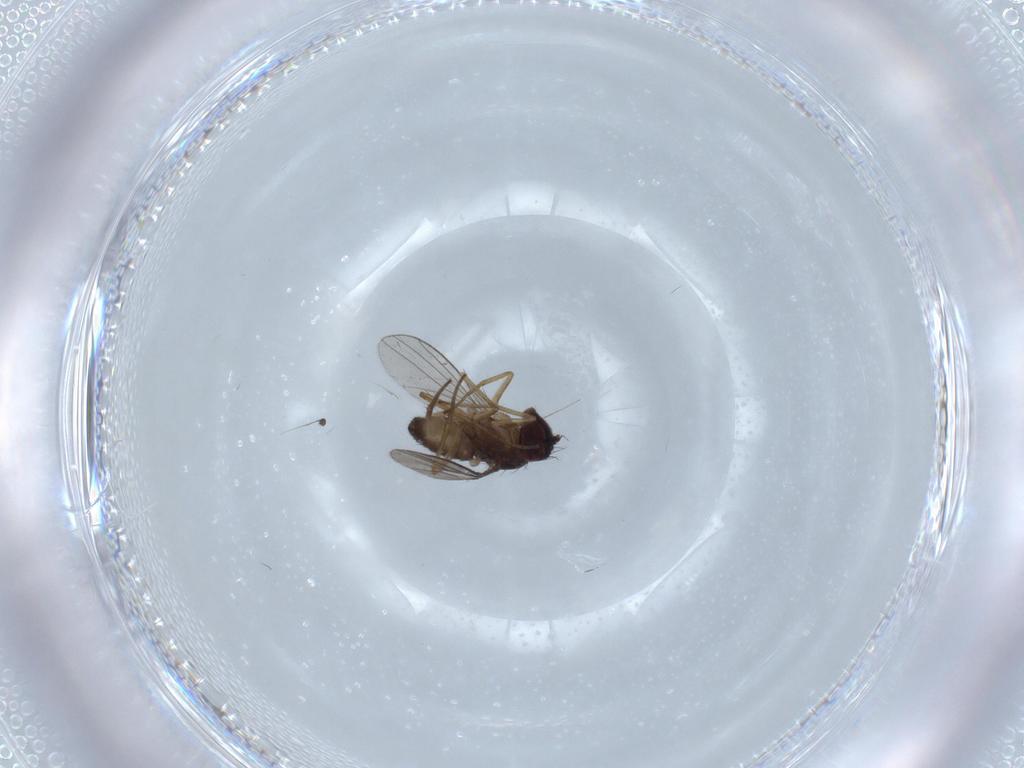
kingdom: Animalia
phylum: Arthropoda
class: Insecta
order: Diptera
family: Dolichopodidae
